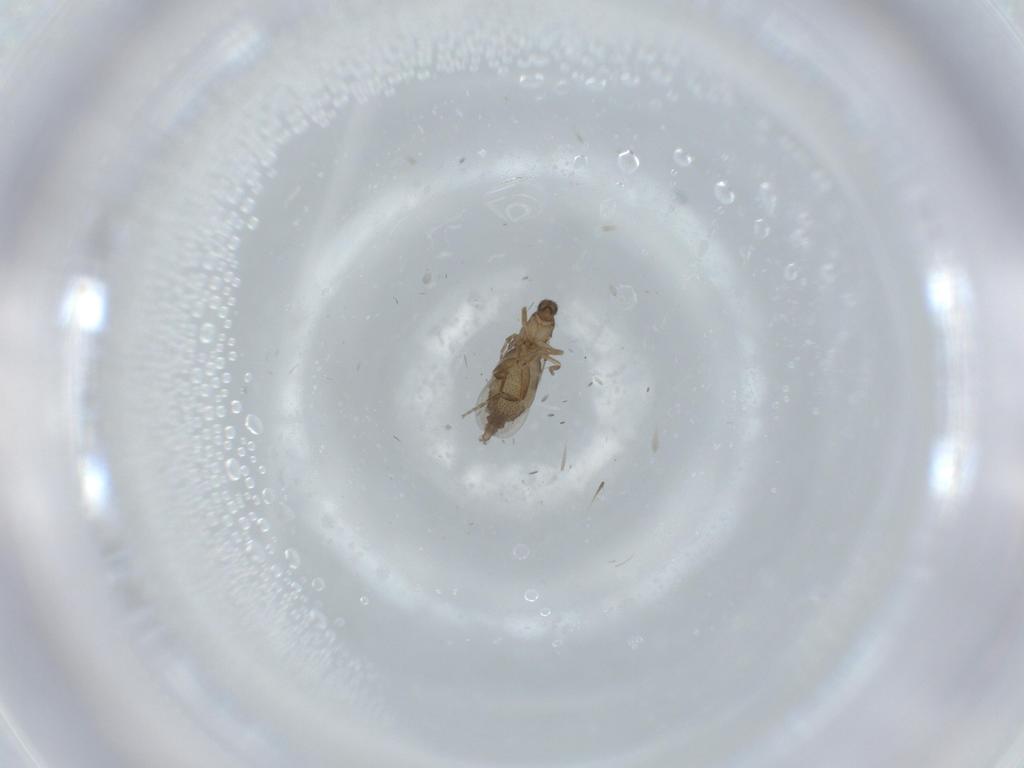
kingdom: Animalia
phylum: Arthropoda
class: Insecta
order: Diptera
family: Phoridae
